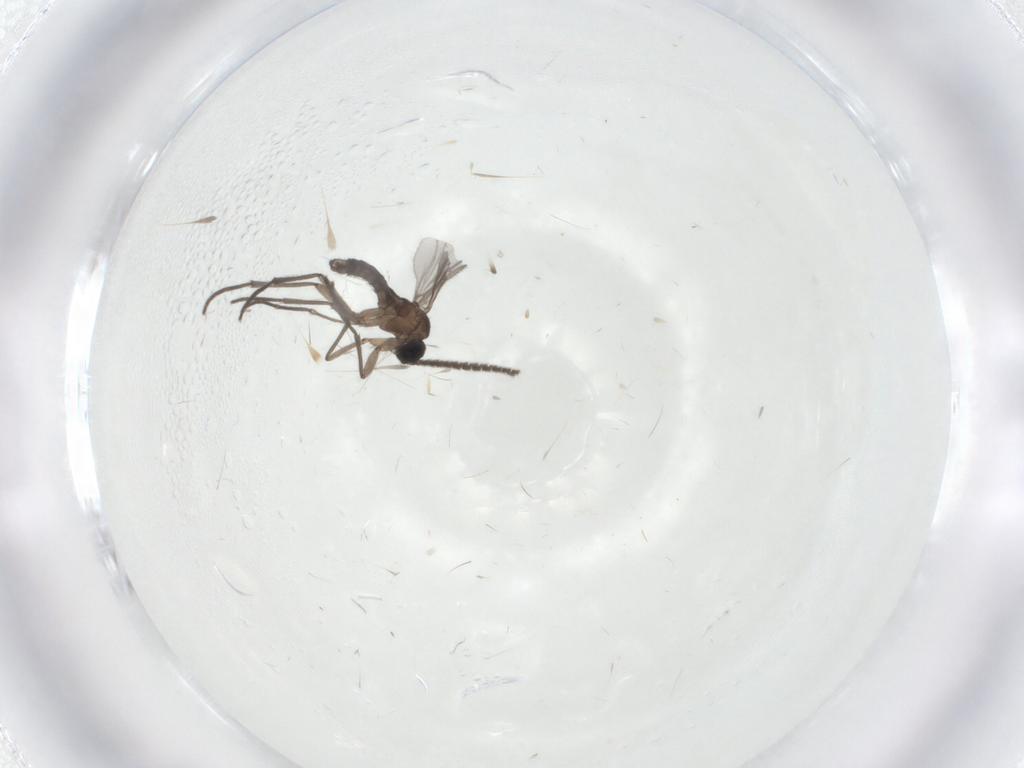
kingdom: Animalia
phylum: Arthropoda
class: Insecta
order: Diptera
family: Sciaridae
